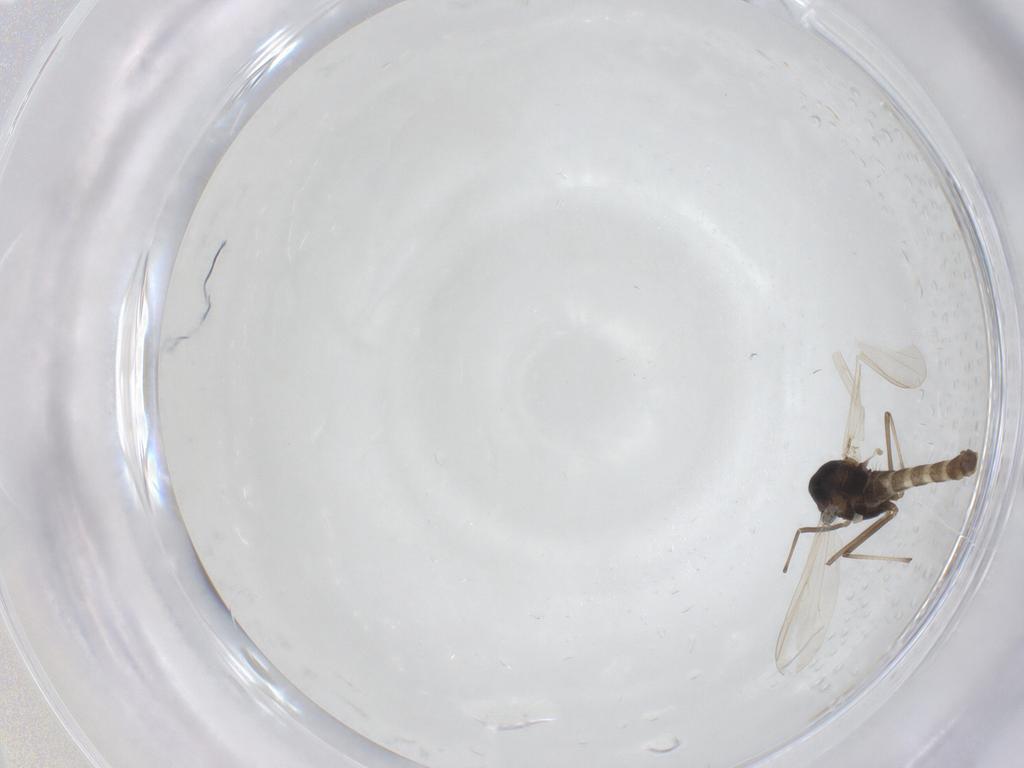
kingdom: Animalia
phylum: Arthropoda
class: Insecta
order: Diptera
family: Chironomidae
